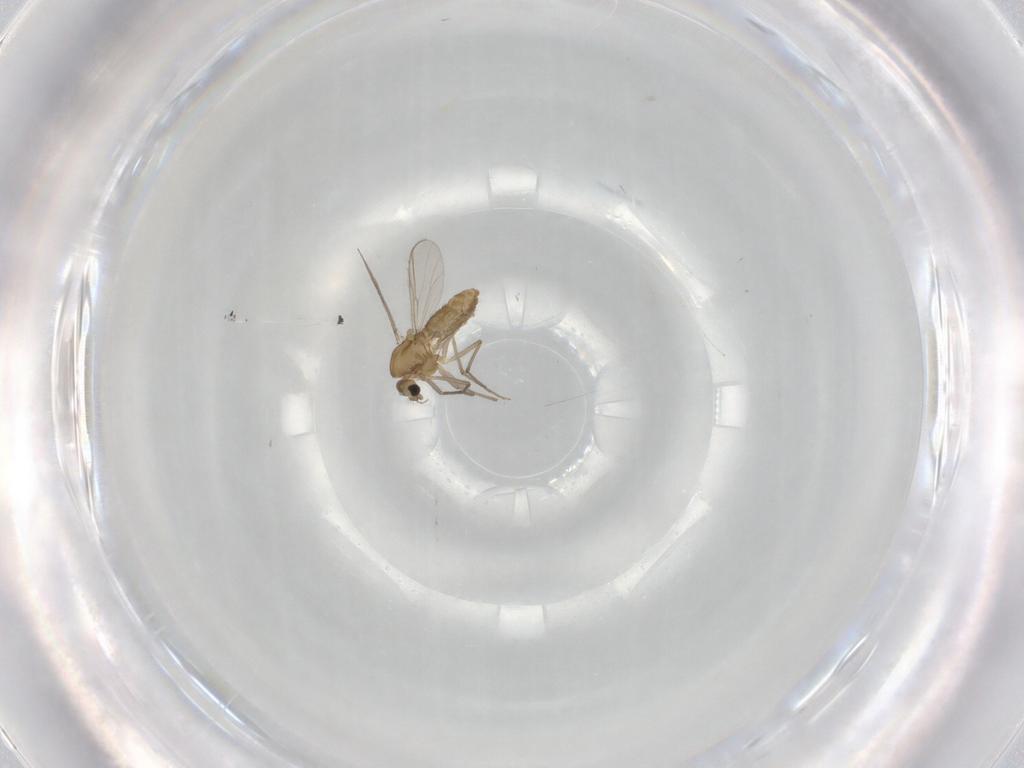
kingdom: Animalia
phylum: Arthropoda
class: Insecta
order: Diptera
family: Chironomidae
